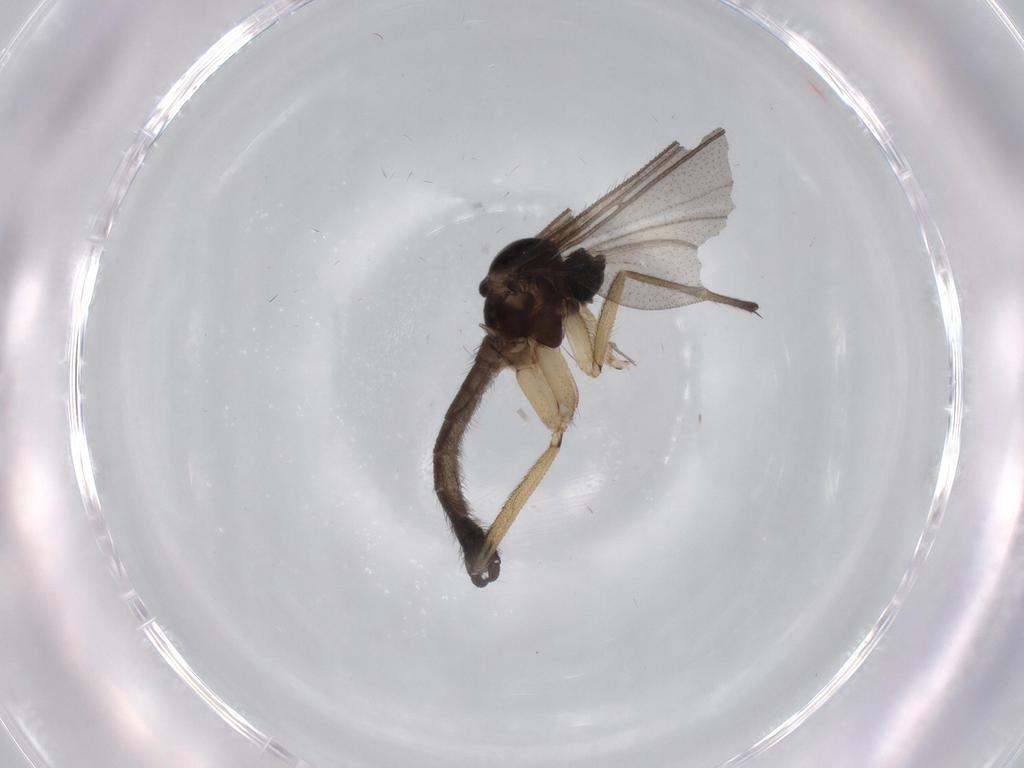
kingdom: Animalia
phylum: Arthropoda
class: Insecta
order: Diptera
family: Sciaridae
